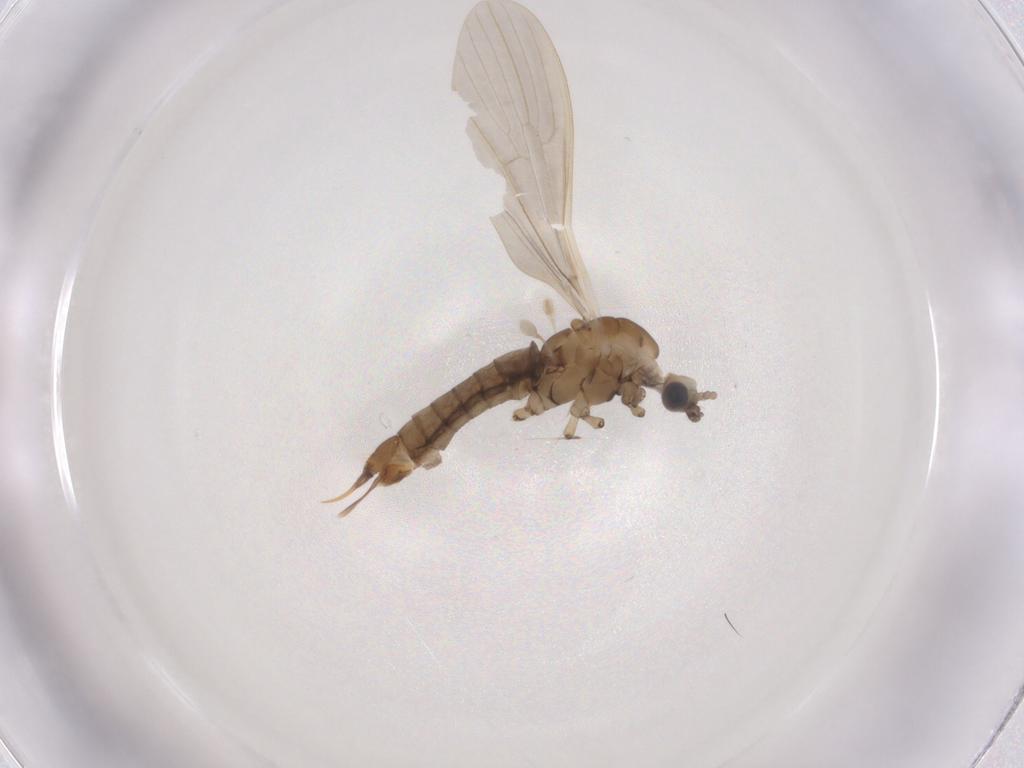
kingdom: Animalia
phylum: Arthropoda
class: Insecta
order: Diptera
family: Limoniidae
